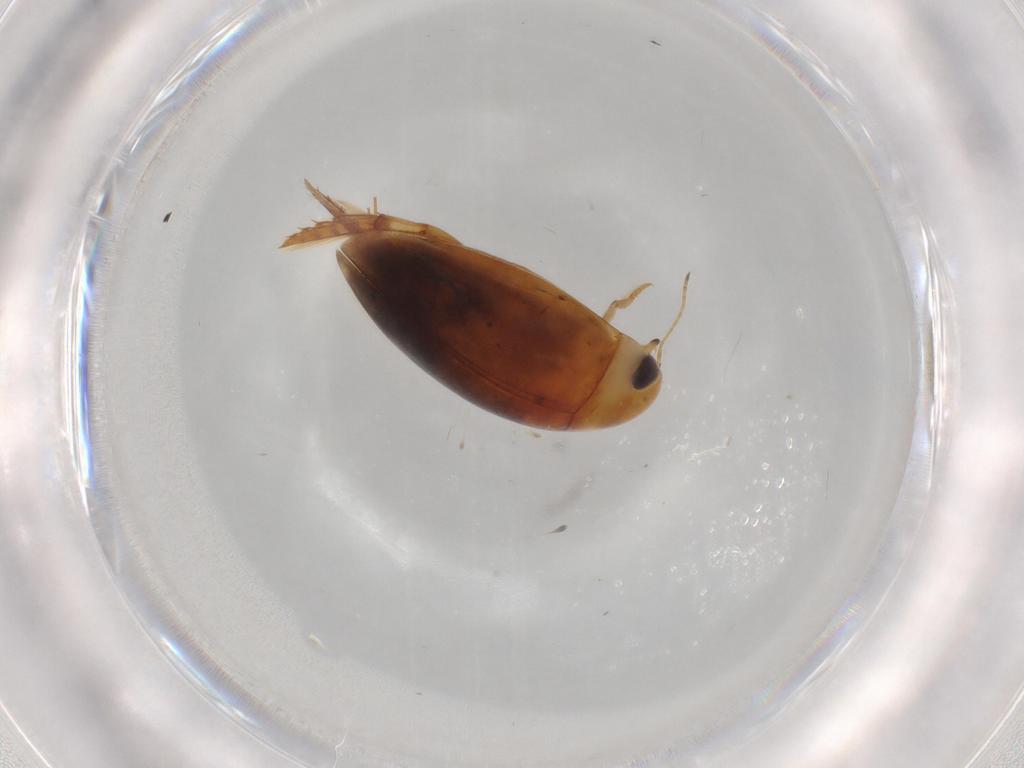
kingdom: Animalia
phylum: Arthropoda
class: Insecta
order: Coleoptera
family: Dytiscidae
